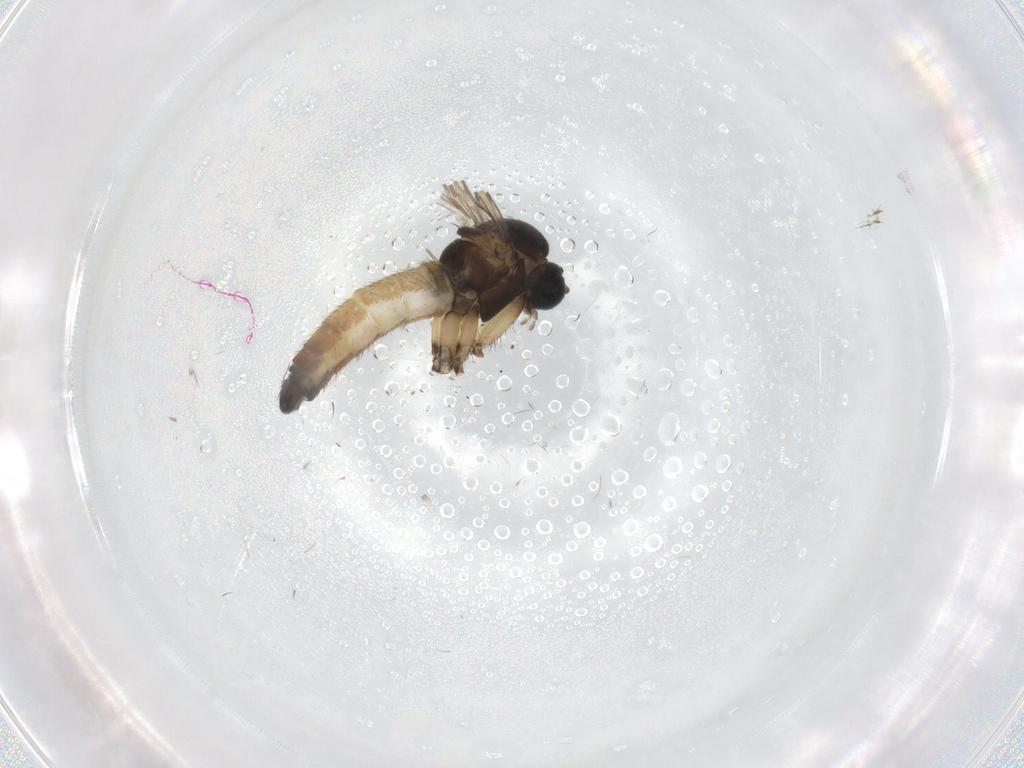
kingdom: Animalia
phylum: Arthropoda
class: Insecta
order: Diptera
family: Sciaridae
